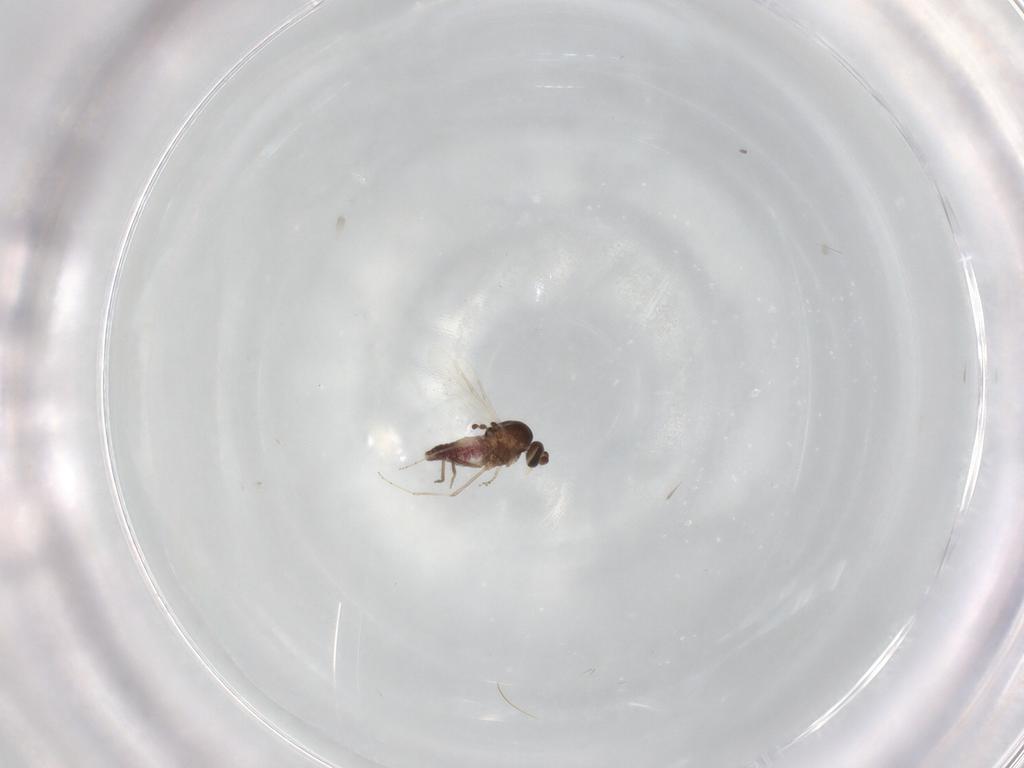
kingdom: Animalia
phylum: Arthropoda
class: Insecta
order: Diptera
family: Ceratopogonidae
